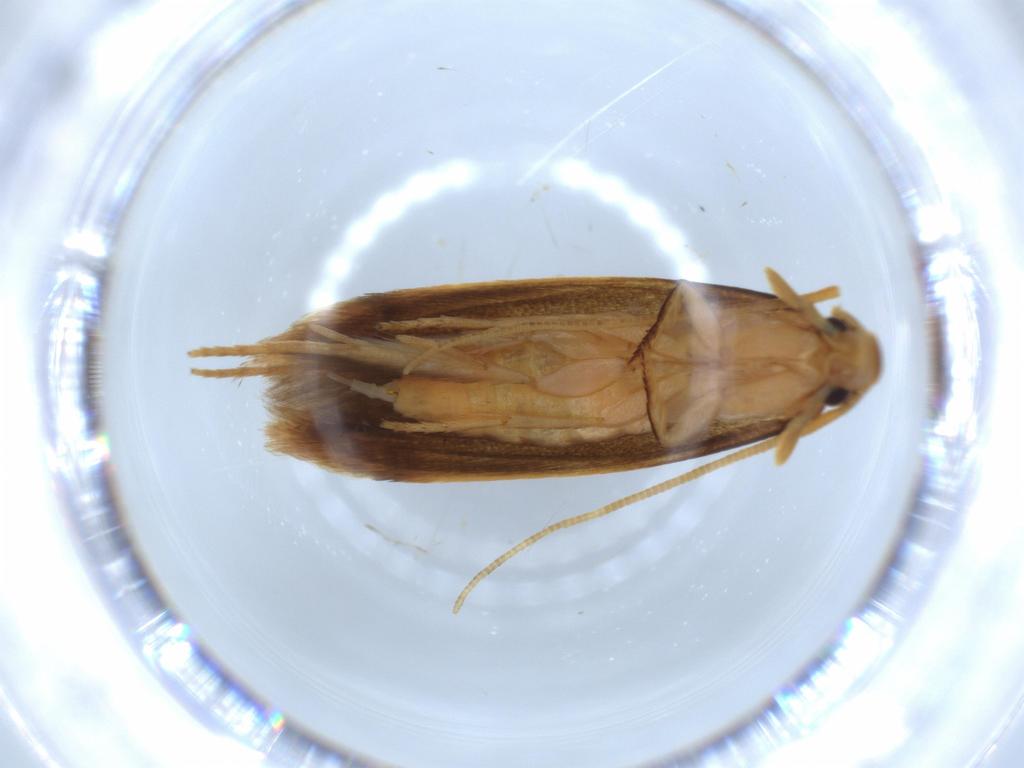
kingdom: Animalia
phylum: Arthropoda
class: Insecta
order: Lepidoptera
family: Tineidae
